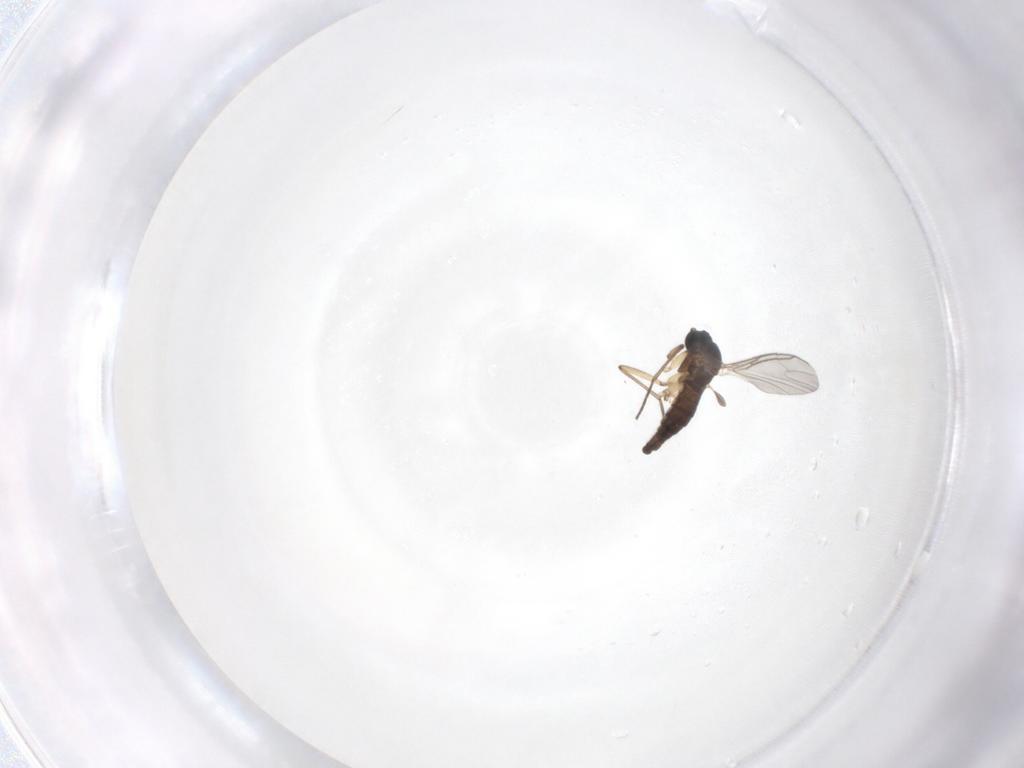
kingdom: Animalia
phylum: Arthropoda
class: Insecta
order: Diptera
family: Sciaridae
